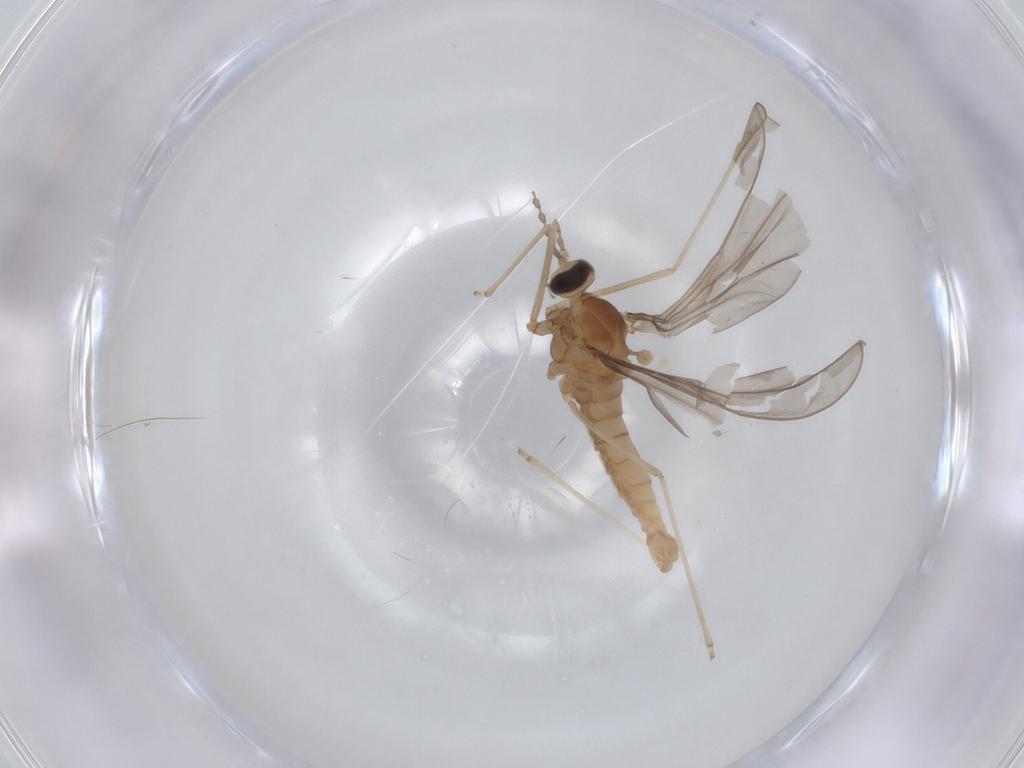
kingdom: Animalia
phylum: Arthropoda
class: Insecta
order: Diptera
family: Cecidomyiidae
